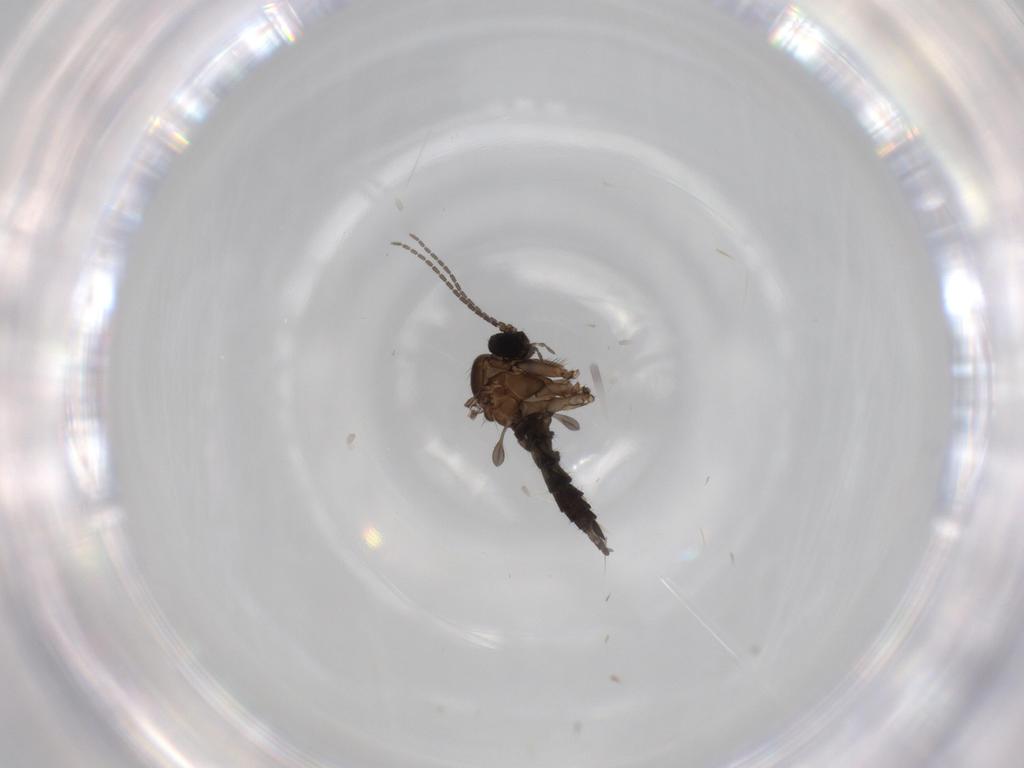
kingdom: Animalia
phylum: Arthropoda
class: Insecta
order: Diptera
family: Sciaridae
